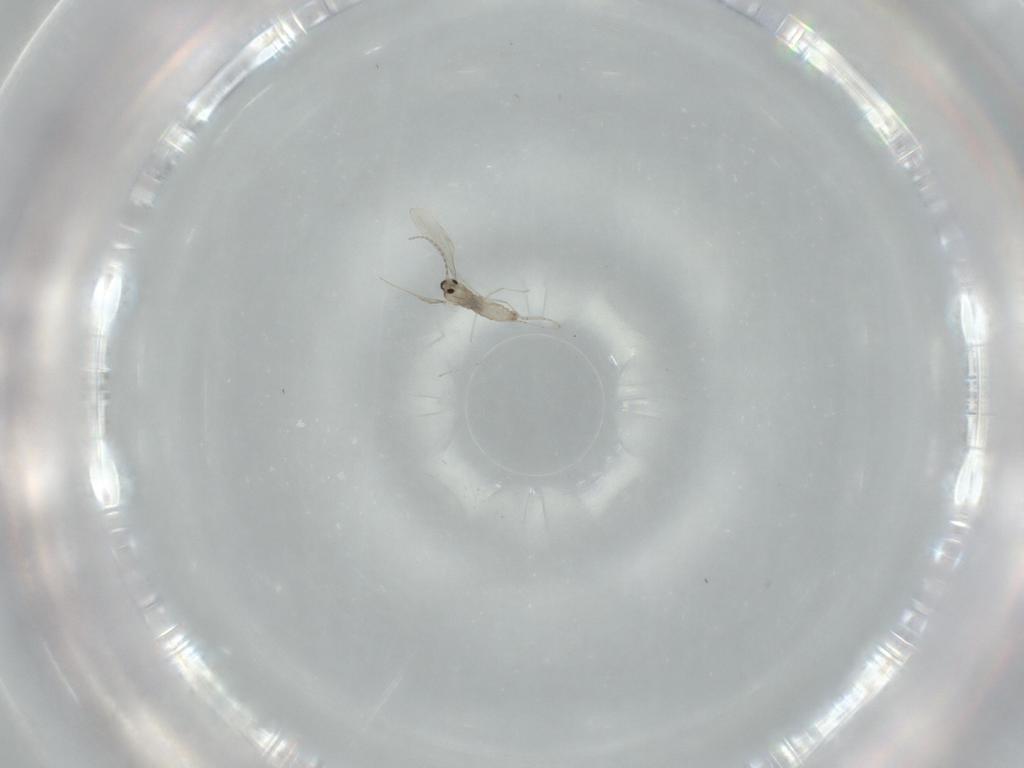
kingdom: Animalia
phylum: Arthropoda
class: Insecta
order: Diptera
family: Cecidomyiidae
